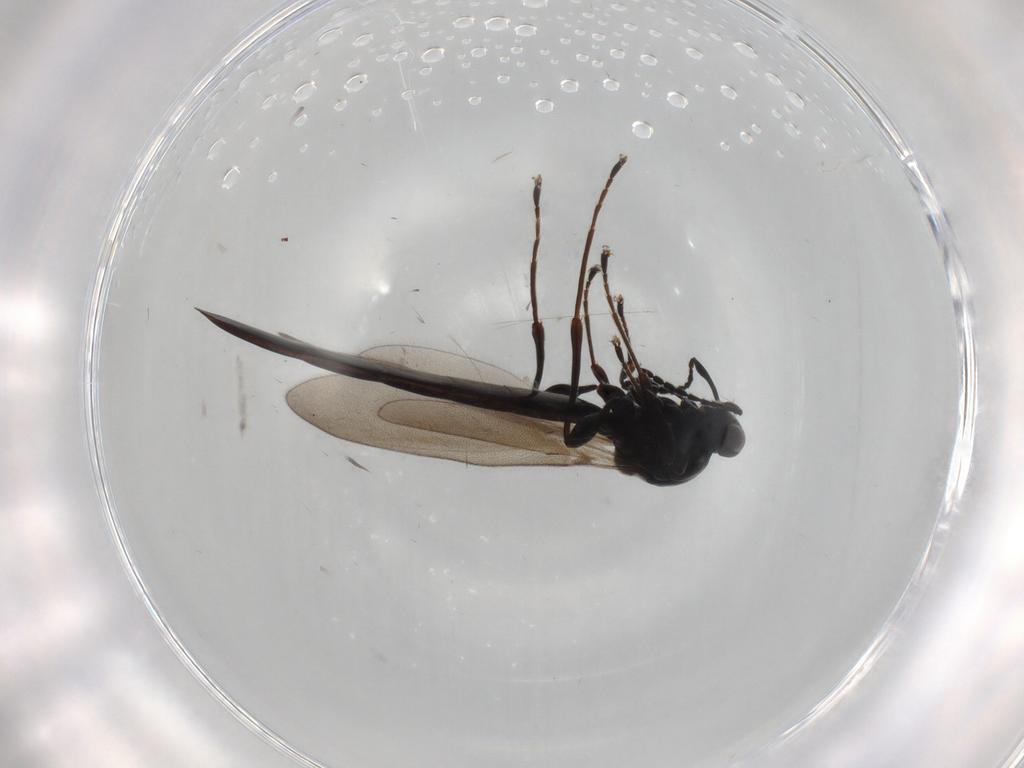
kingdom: Animalia
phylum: Arthropoda
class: Insecta
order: Hymenoptera
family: Platygastridae
